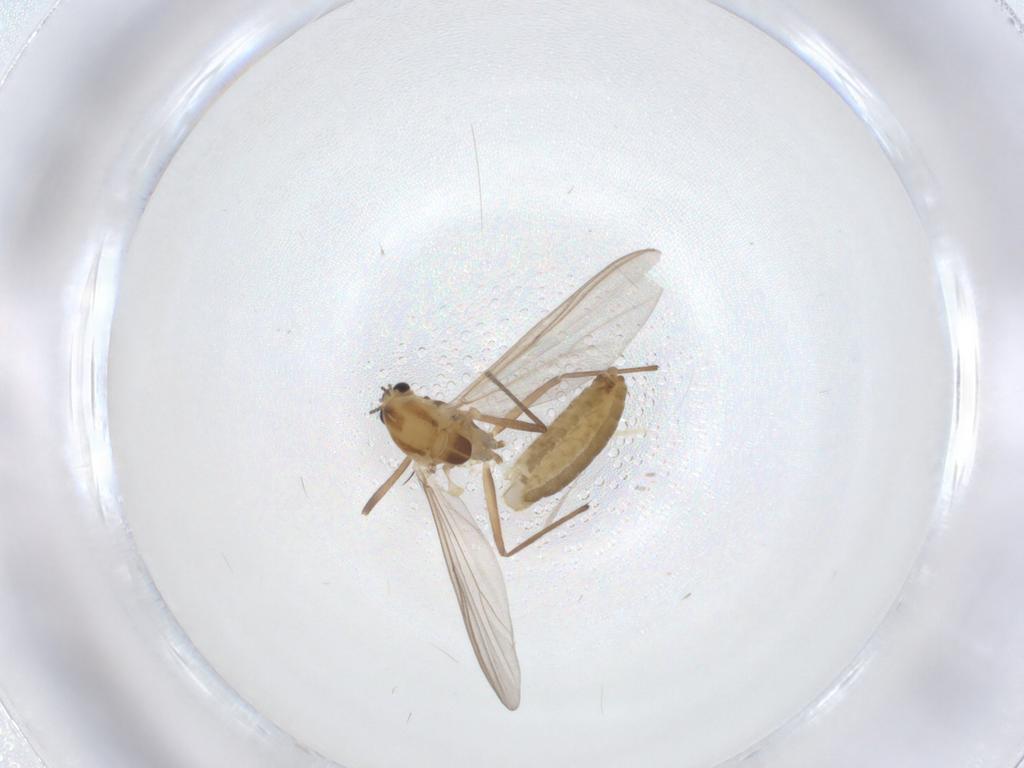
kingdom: Animalia
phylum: Arthropoda
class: Insecta
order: Diptera
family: Chironomidae
